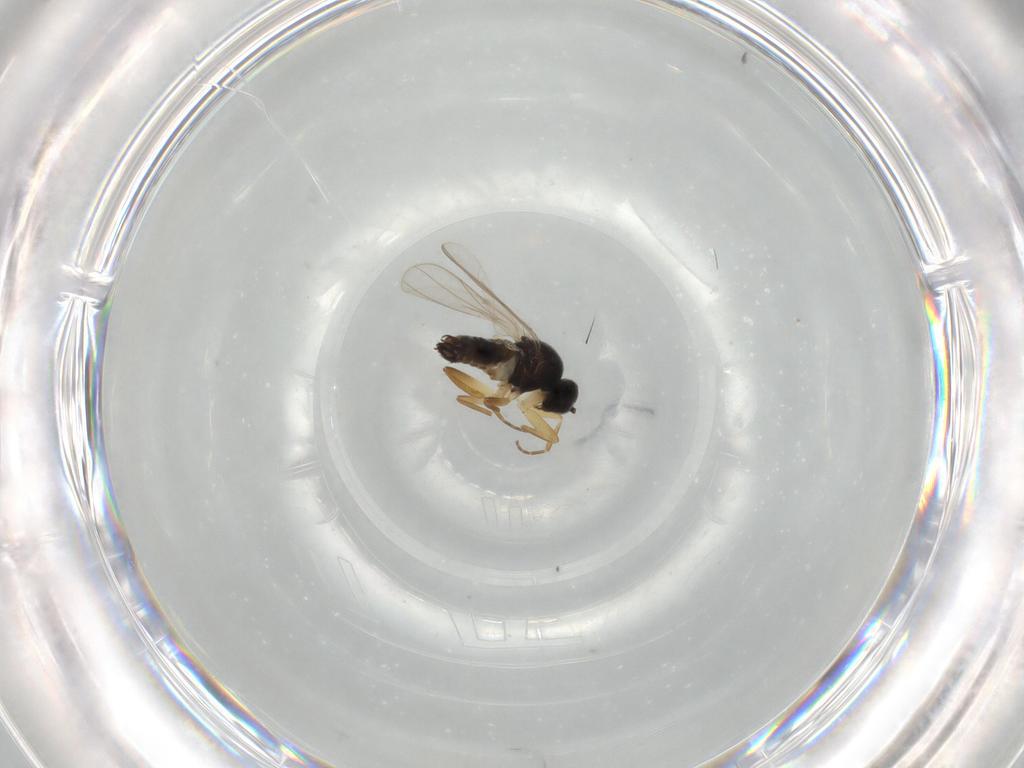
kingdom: Animalia
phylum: Arthropoda
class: Insecta
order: Diptera
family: Hybotidae
